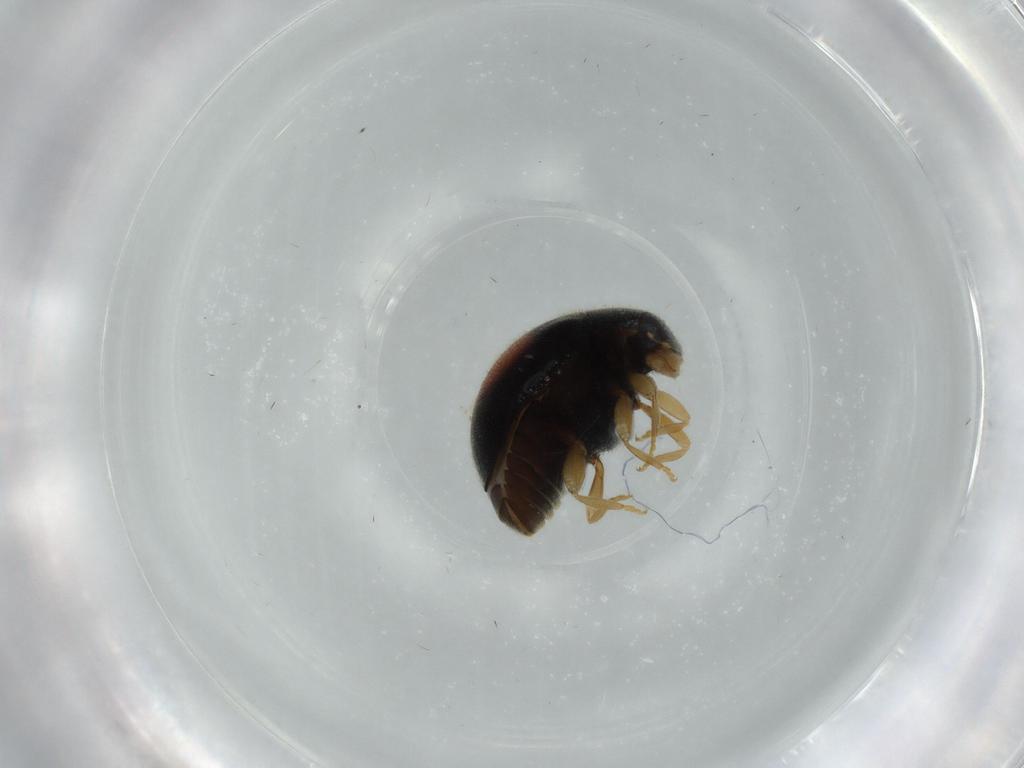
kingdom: Animalia
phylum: Arthropoda
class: Insecta
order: Coleoptera
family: Coccinellidae
